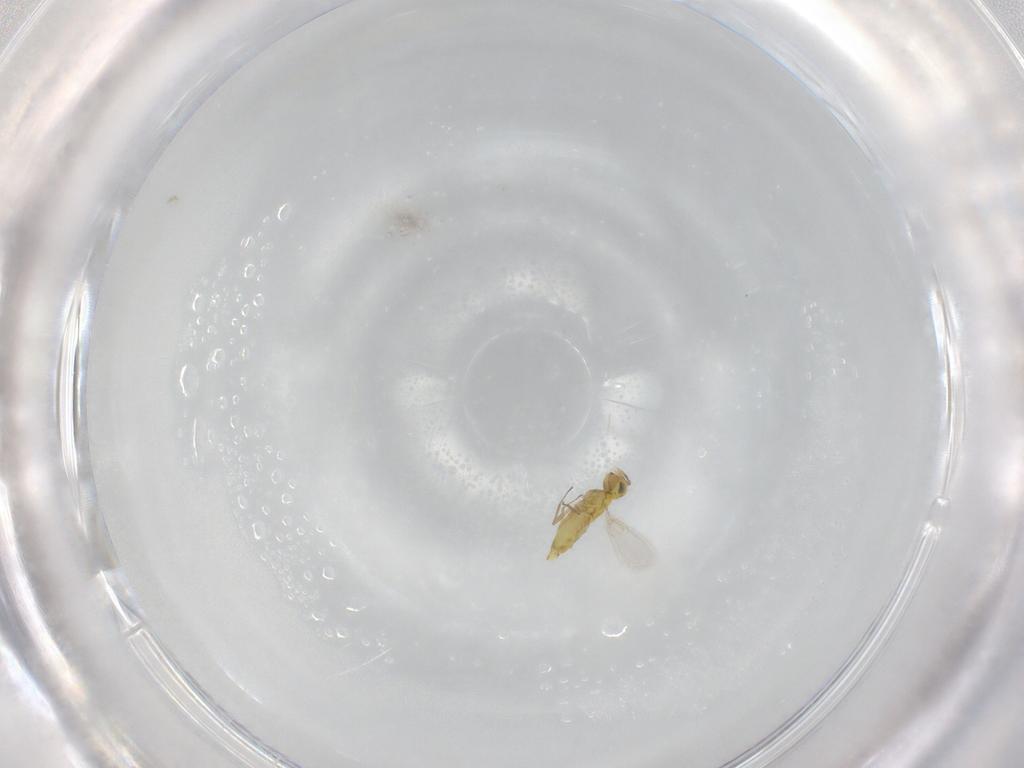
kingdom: Animalia
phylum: Arthropoda
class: Insecta
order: Hymenoptera
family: Aphelinidae
